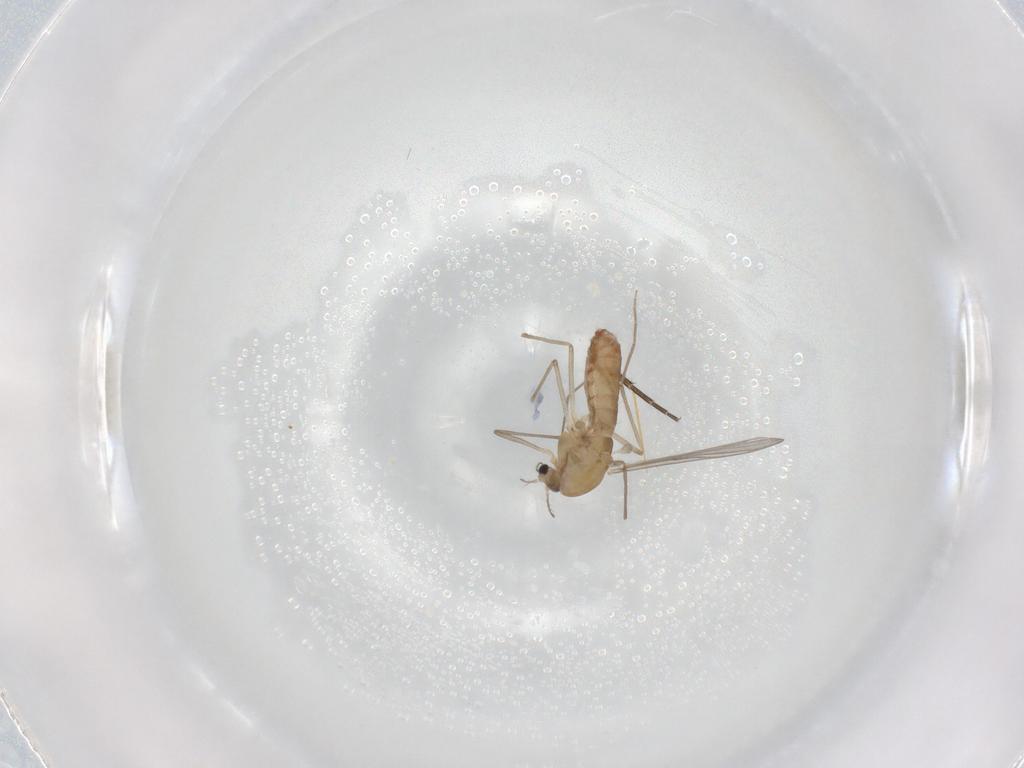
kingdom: Animalia
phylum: Arthropoda
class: Insecta
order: Diptera
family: Chironomidae
